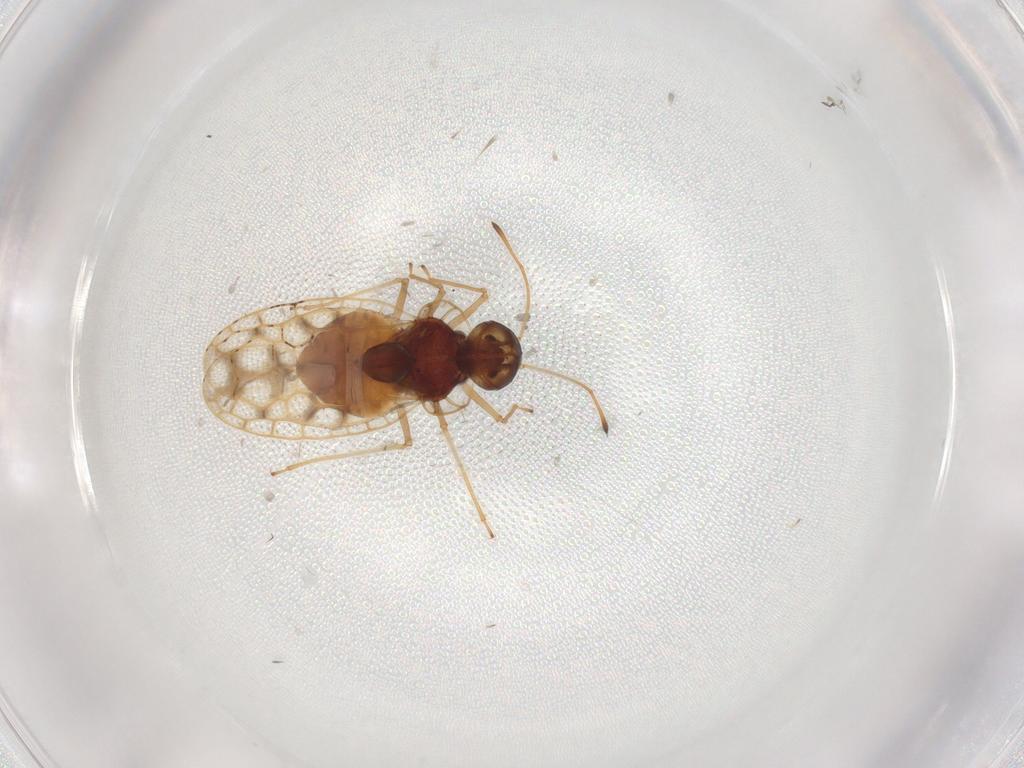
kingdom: Animalia
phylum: Arthropoda
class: Insecta
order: Hemiptera
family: Tingidae
